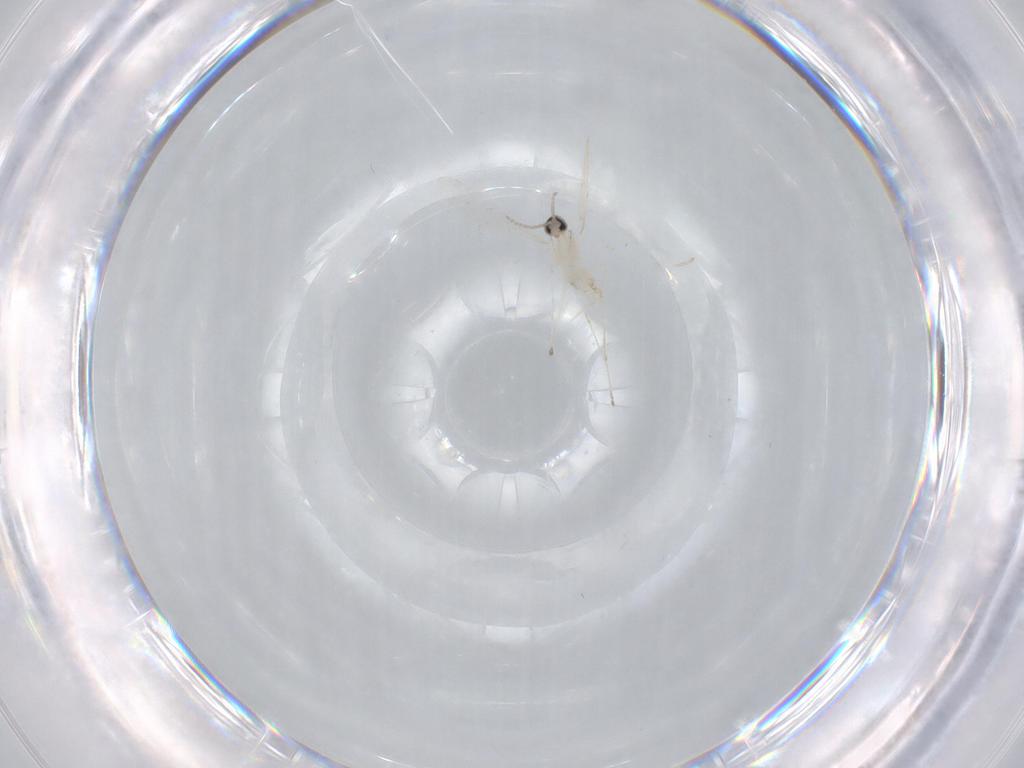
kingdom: Animalia
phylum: Arthropoda
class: Insecta
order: Diptera
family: Cecidomyiidae
